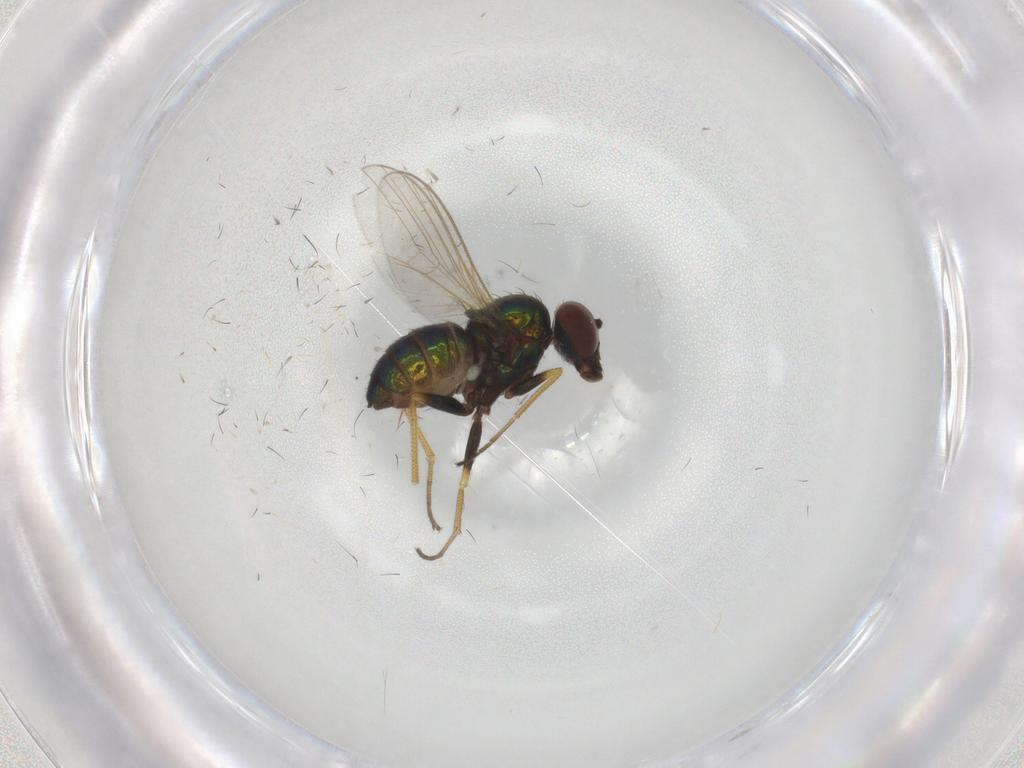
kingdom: Animalia
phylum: Arthropoda
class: Insecta
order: Diptera
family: Dolichopodidae
